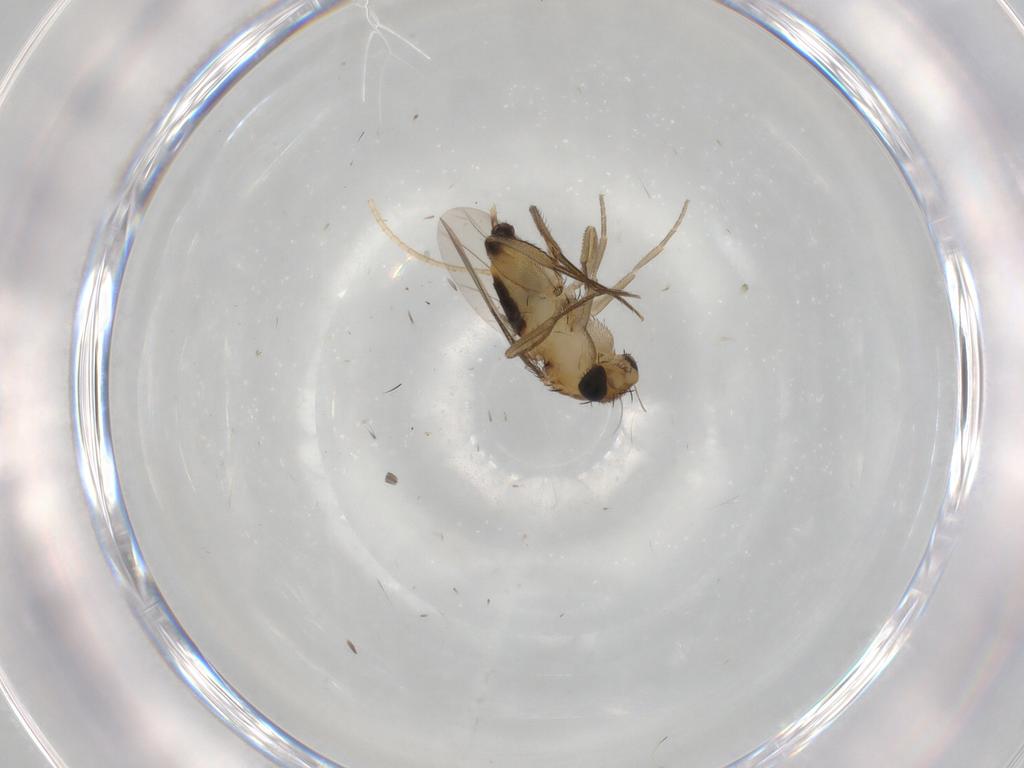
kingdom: Animalia
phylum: Arthropoda
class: Insecta
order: Diptera
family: Phoridae
